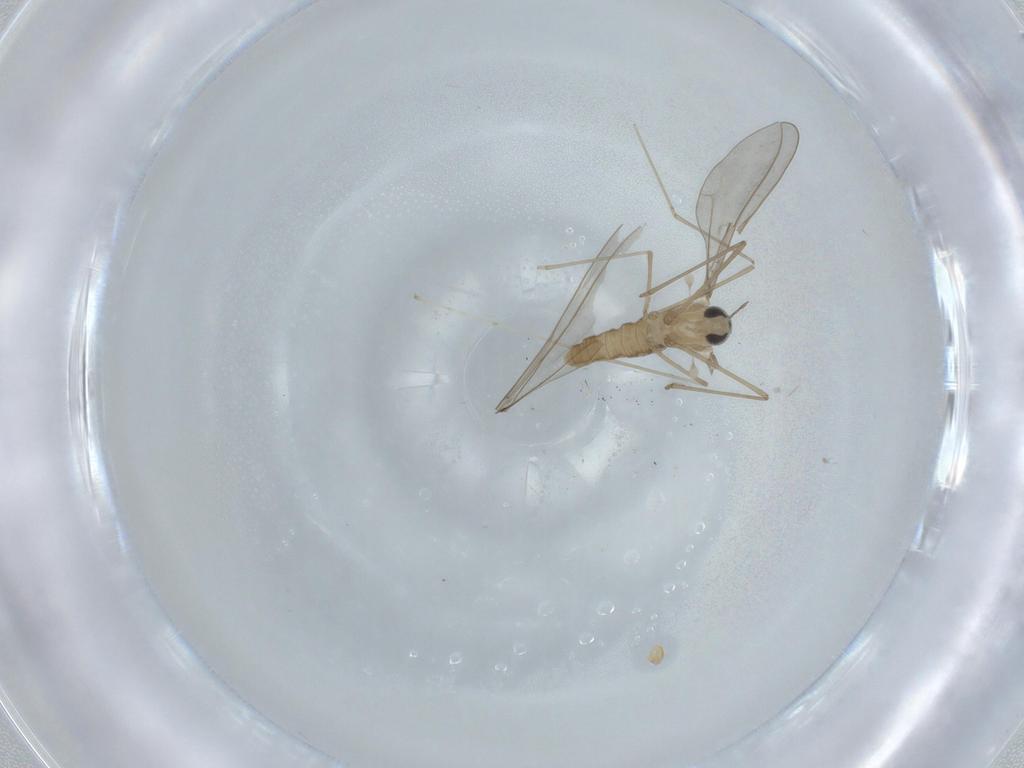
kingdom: Animalia
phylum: Arthropoda
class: Insecta
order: Diptera
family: Cecidomyiidae
